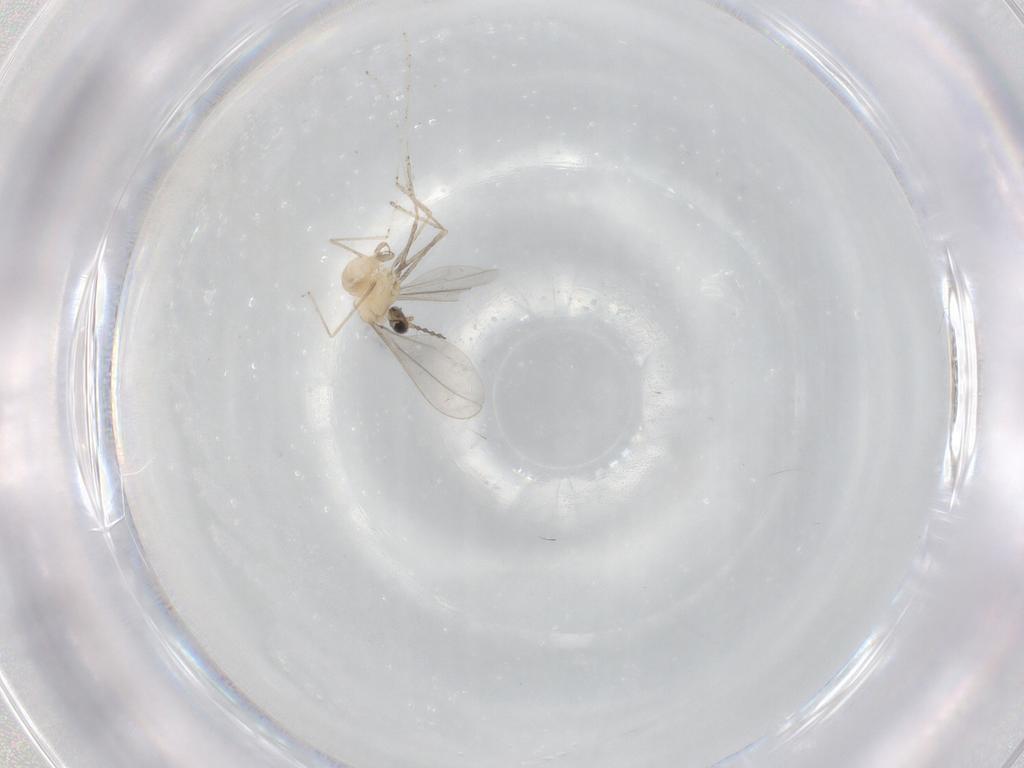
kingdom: Animalia
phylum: Arthropoda
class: Insecta
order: Diptera
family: Cecidomyiidae
